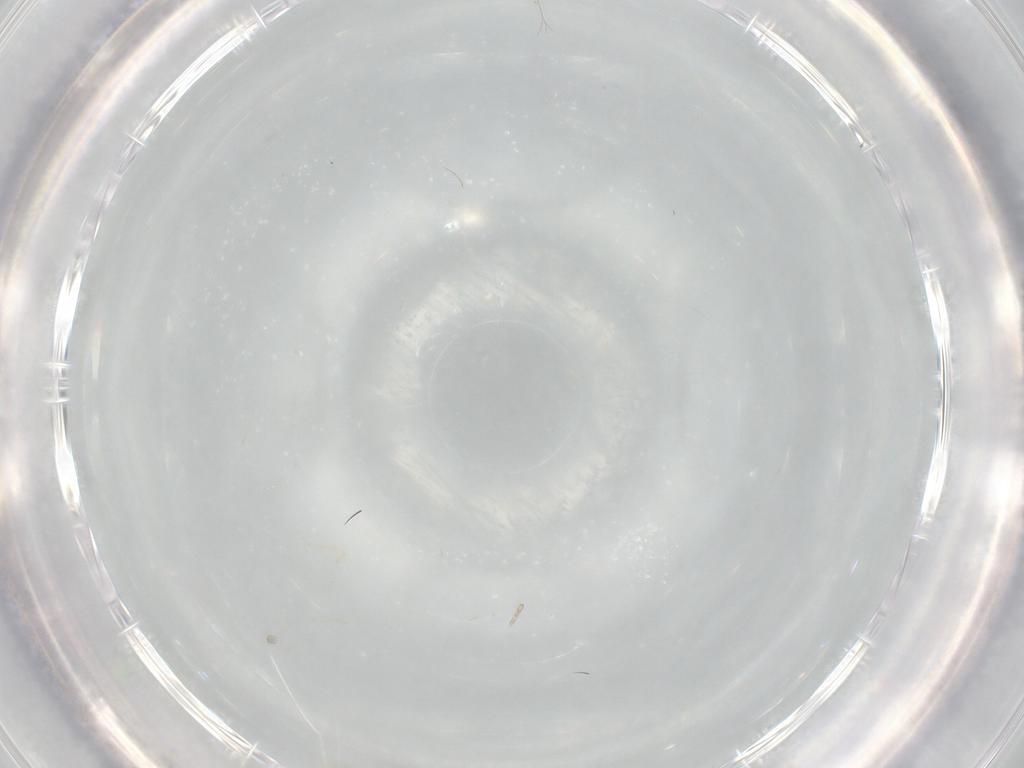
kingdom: Animalia
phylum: Arthropoda
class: Collembola
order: Entomobryomorpha
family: Entomobryidae
